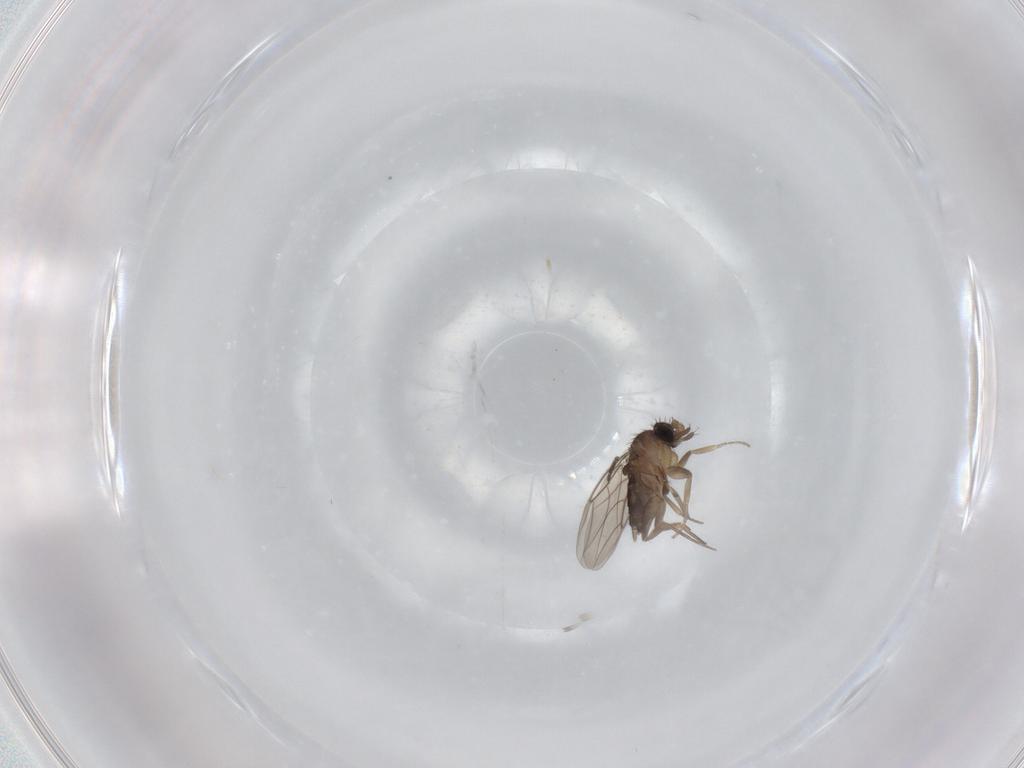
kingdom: Animalia
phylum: Arthropoda
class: Insecta
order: Diptera
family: Phoridae
